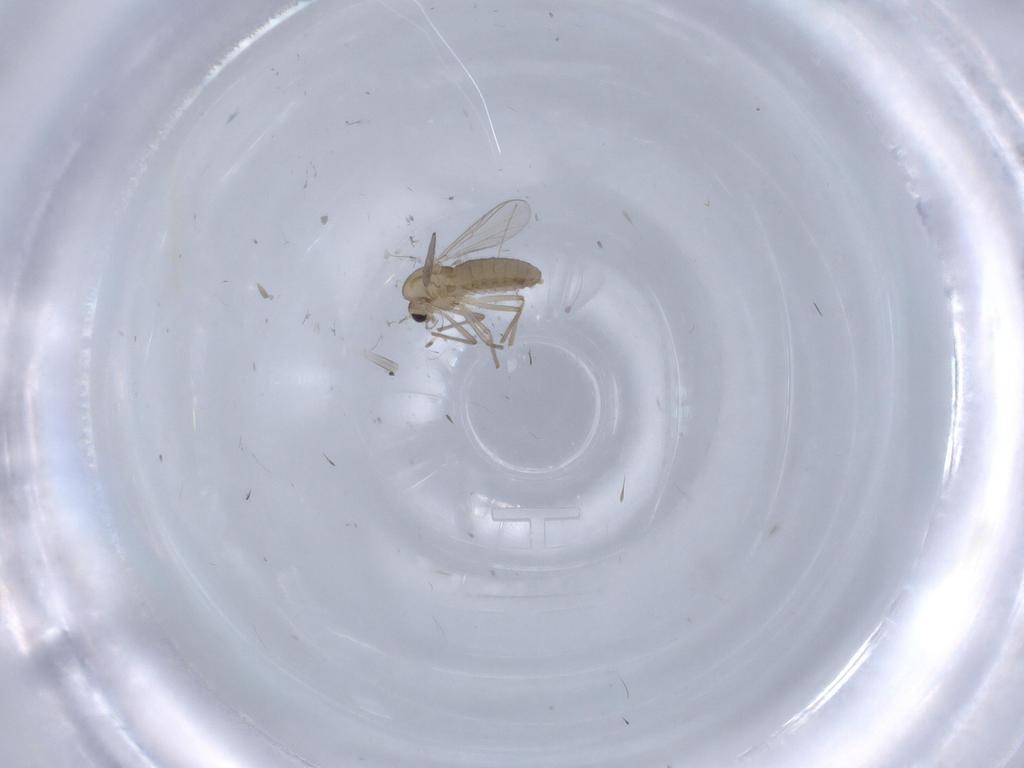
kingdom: Animalia
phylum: Arthropoda
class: Insecta
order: Diptera
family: Chironomidae
